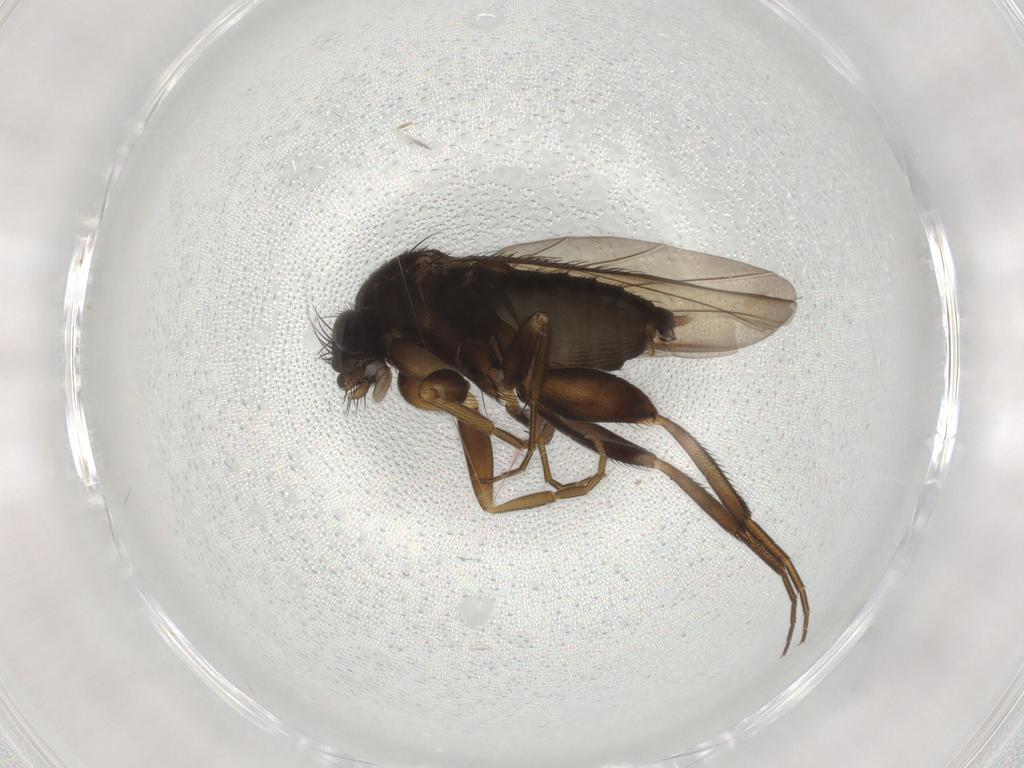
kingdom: Animalia
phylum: Arthropoda
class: Insecta
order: Diptera
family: Phoridae
